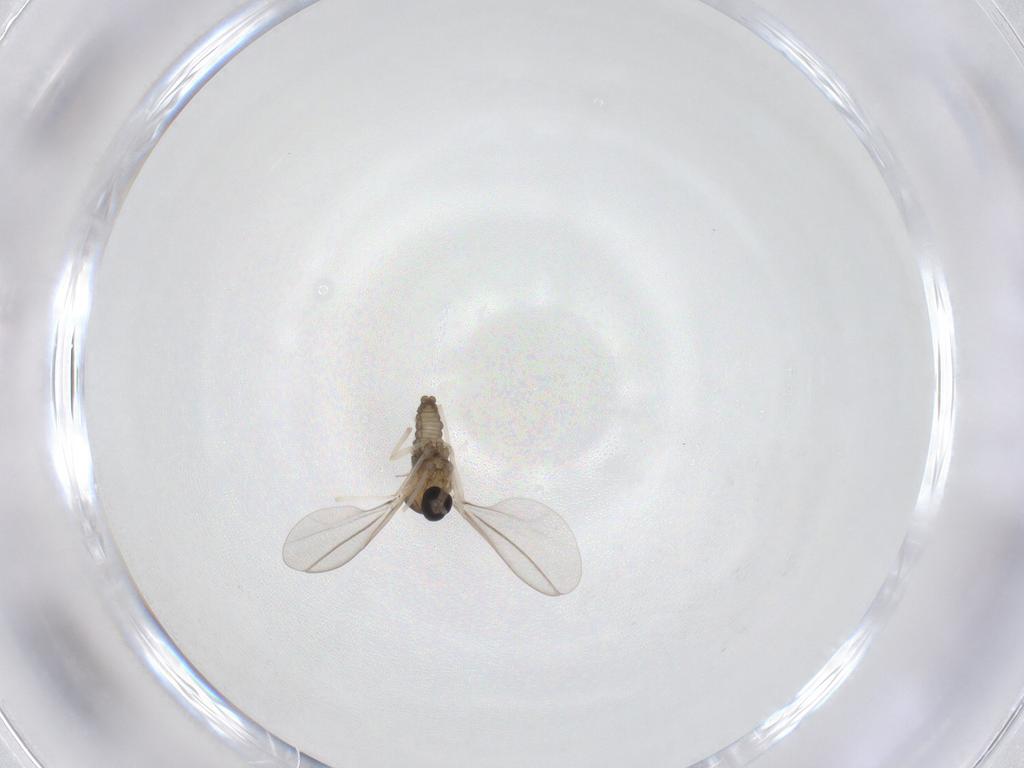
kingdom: Animalia
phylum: Arthropoda
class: Insecta
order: Diptera
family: Cecidomyiidae
